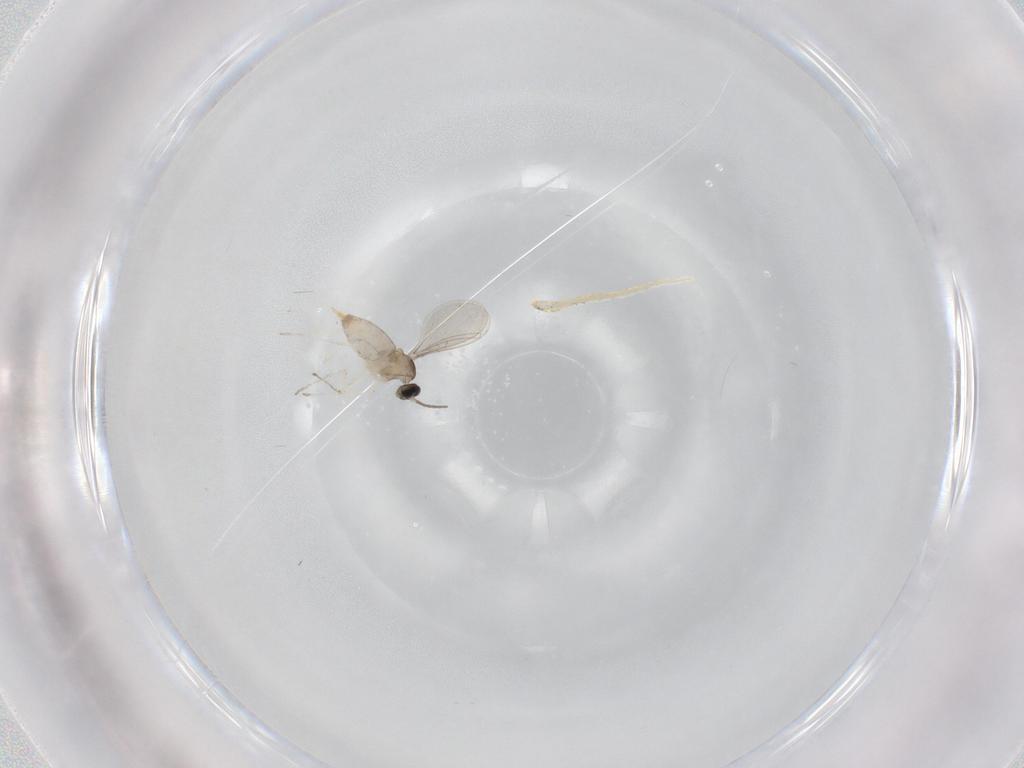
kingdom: Animalia
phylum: Arthropoda
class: Insecta
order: Diptera
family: Cecidomyiidae
